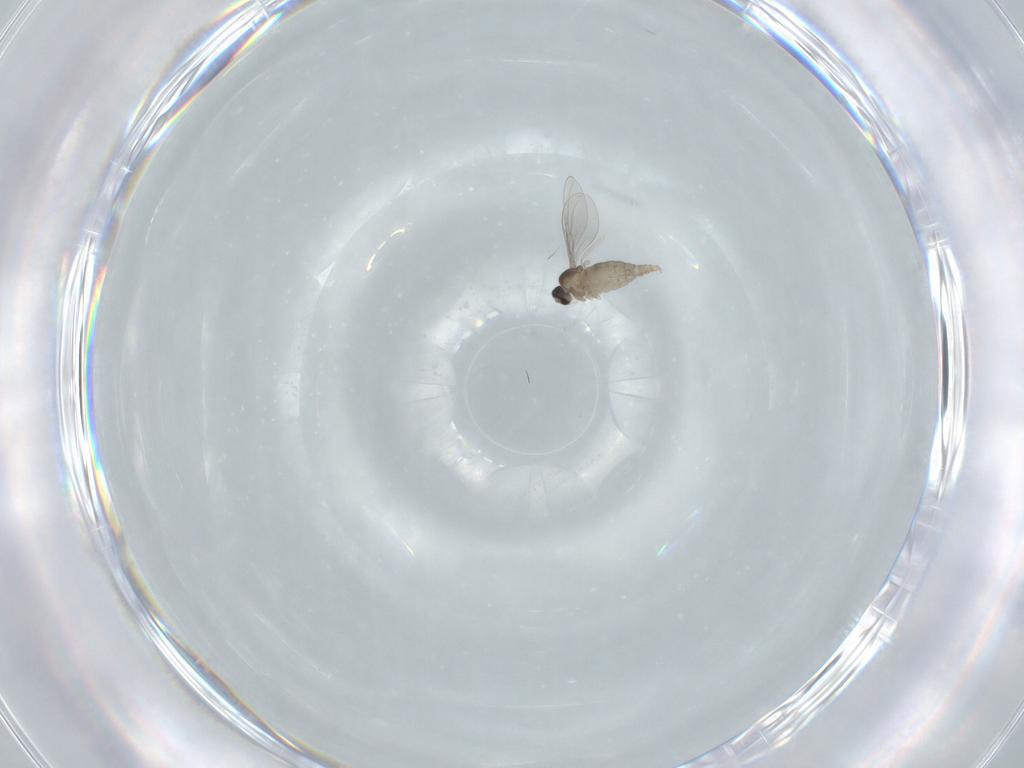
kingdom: Animalia
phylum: Arthropoda
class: Insecta
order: Diptera
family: Cecidomyiidae
